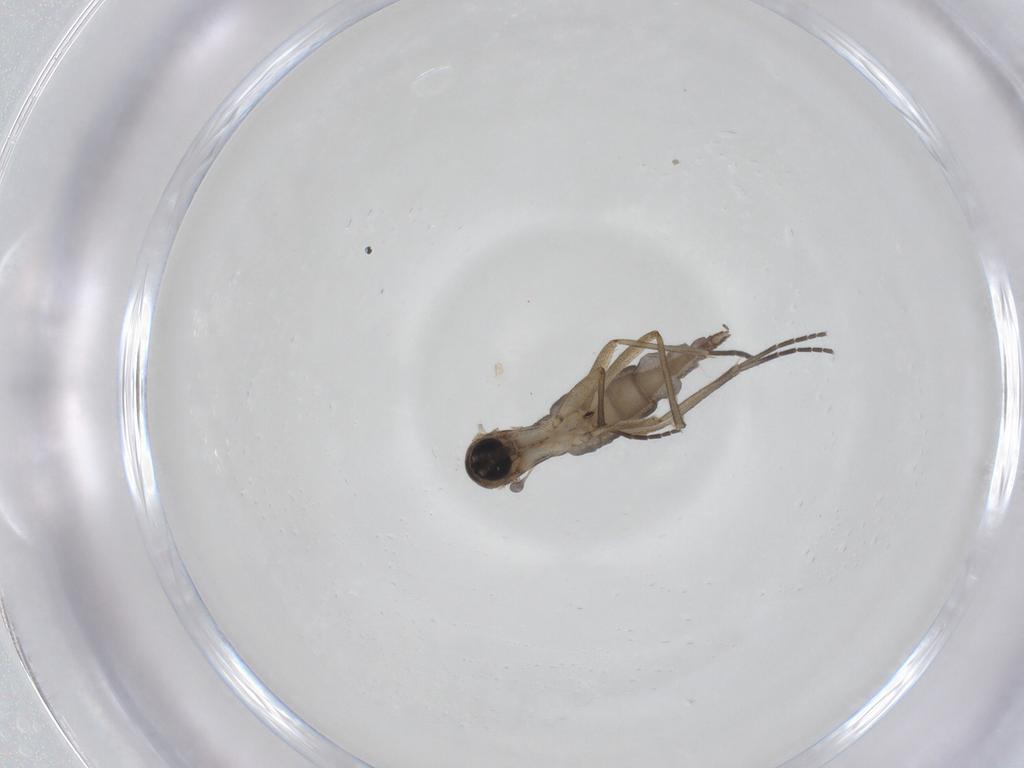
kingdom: Animalia
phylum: Arthropoda
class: Insecta
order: Diptera
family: Sciaridae
